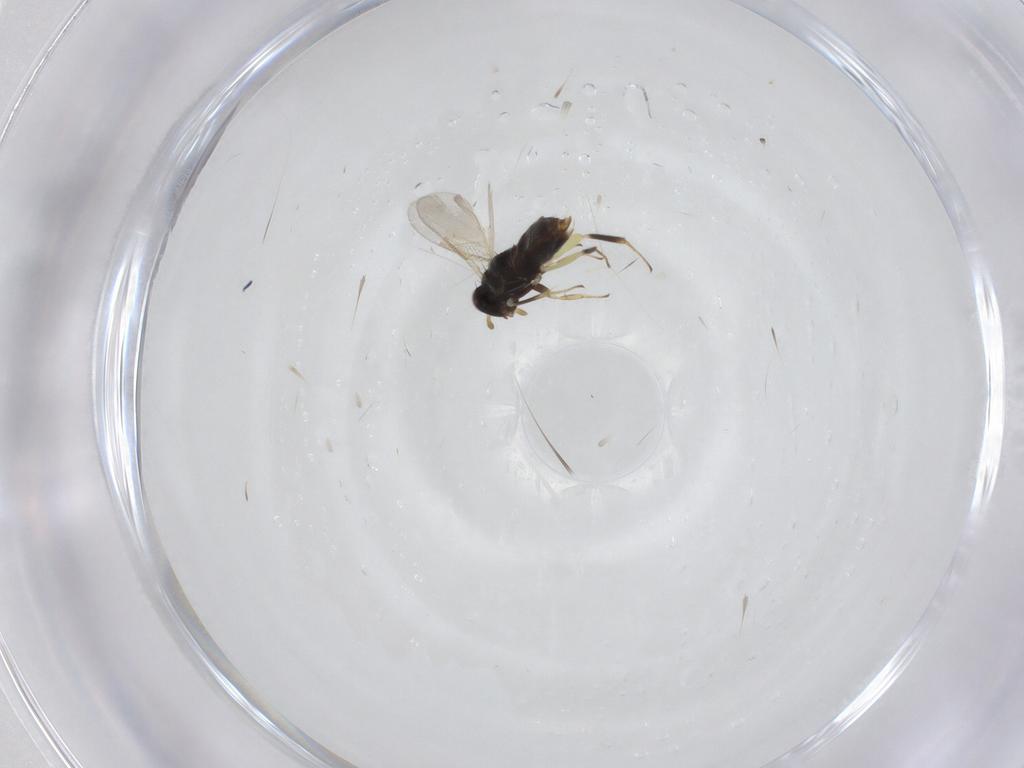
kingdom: Animalia
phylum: Arthropoda
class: Insecta
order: Hymenoptera
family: Aphelinidae
